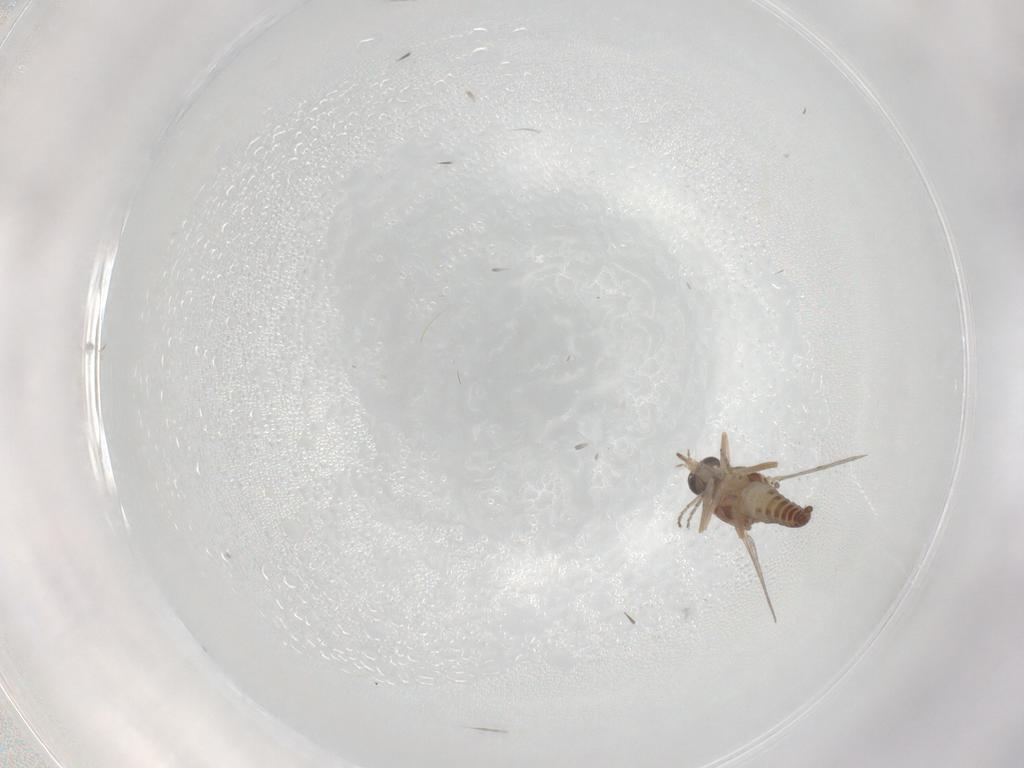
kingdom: Animalia
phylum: Arthropoda
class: Insecta
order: Diptera
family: Ceratopogonidae
